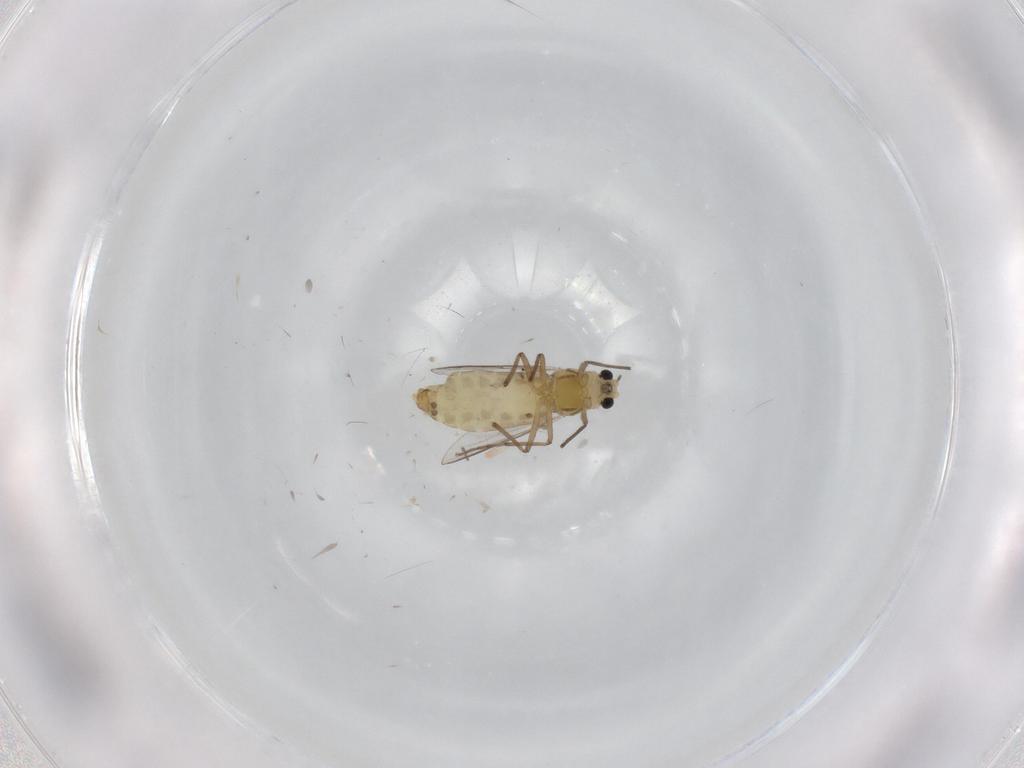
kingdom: Animalia
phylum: Arthropoda
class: Insecta
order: Diptera
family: Chironomidae
